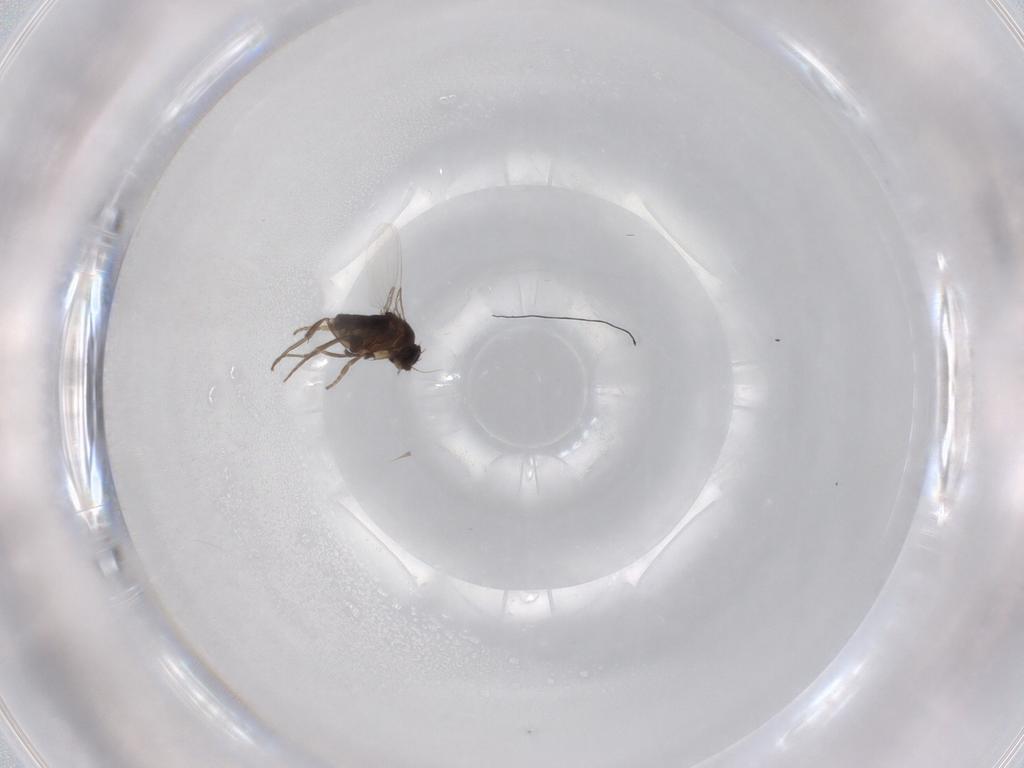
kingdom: Animalia
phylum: Arthropoda
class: Insecta
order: Diptera
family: Phoridae
